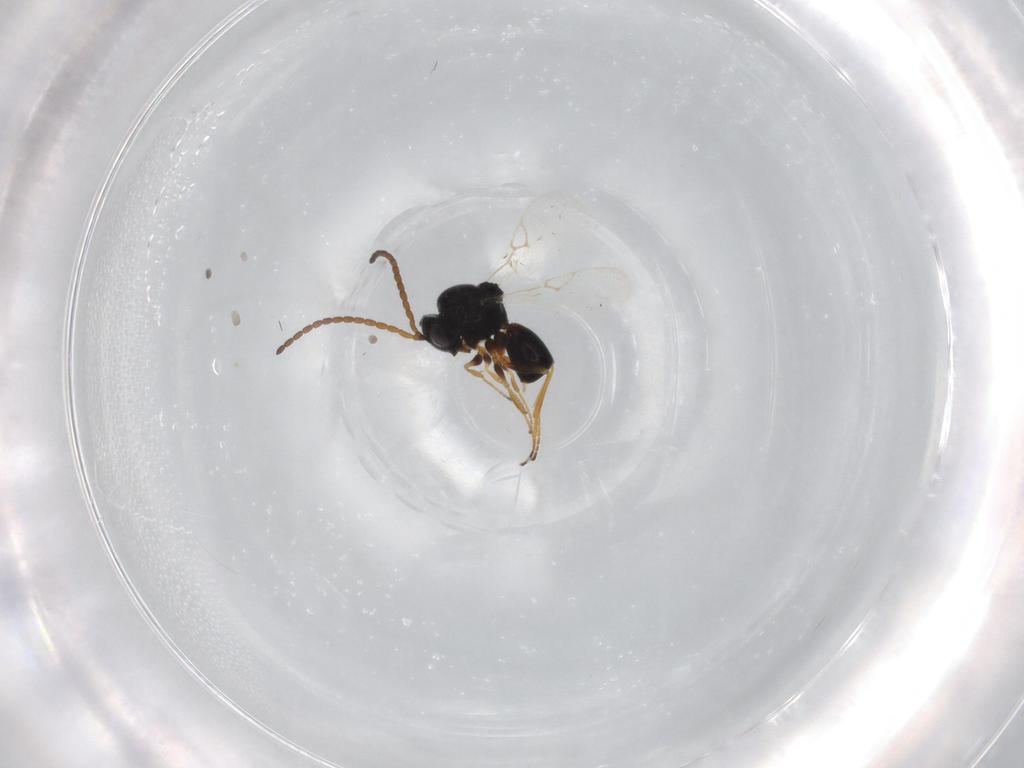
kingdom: Animalia
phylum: Arthropoda
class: Insecta
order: Hymenoptera
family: Figitidae
